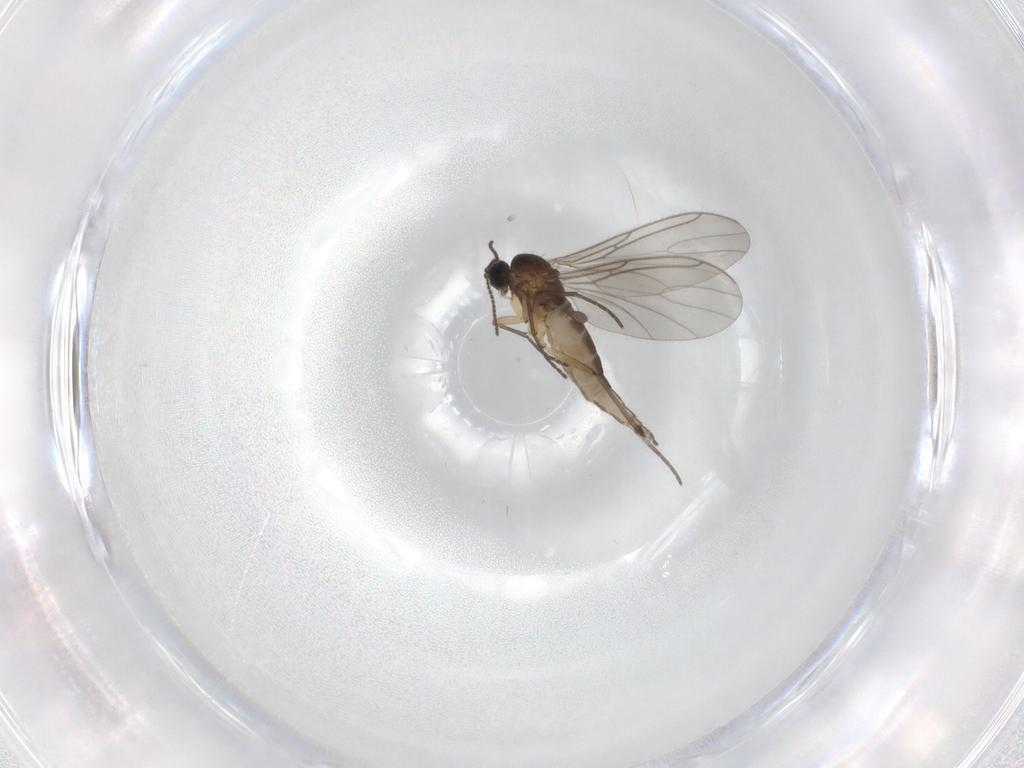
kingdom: Animalia
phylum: Arthropoda
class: Insecta
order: Diptera
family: Sciaridae
